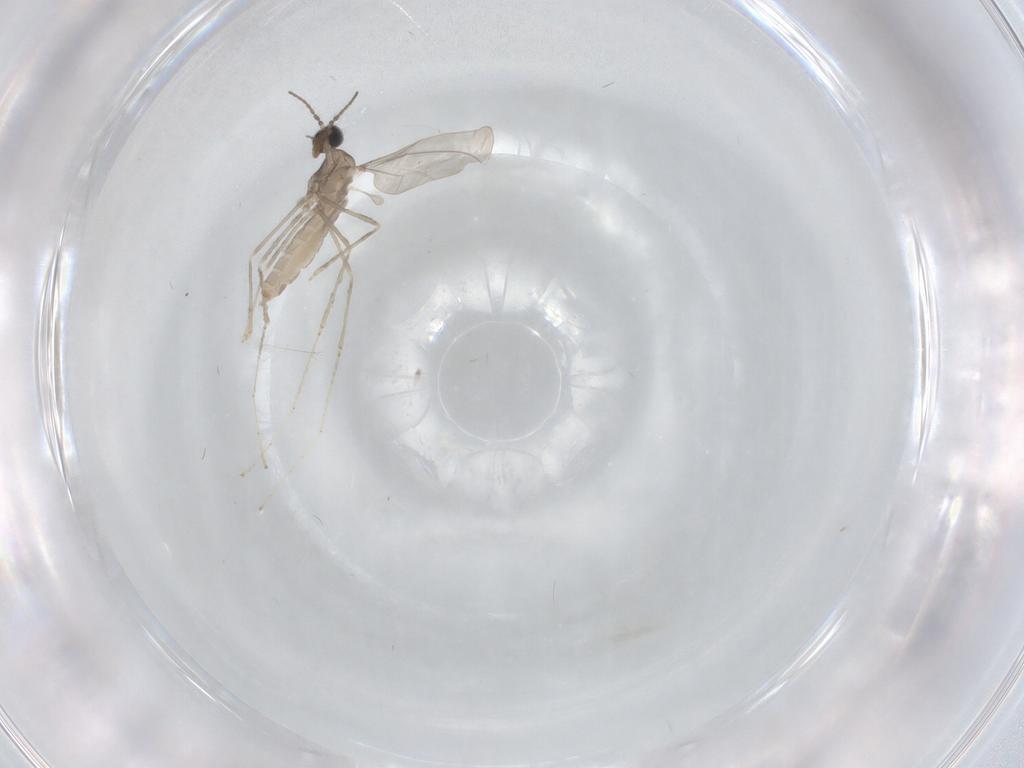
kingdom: Animalia
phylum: Arthropoda
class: Insecta
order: Diptera
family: Cecidomyiidae
